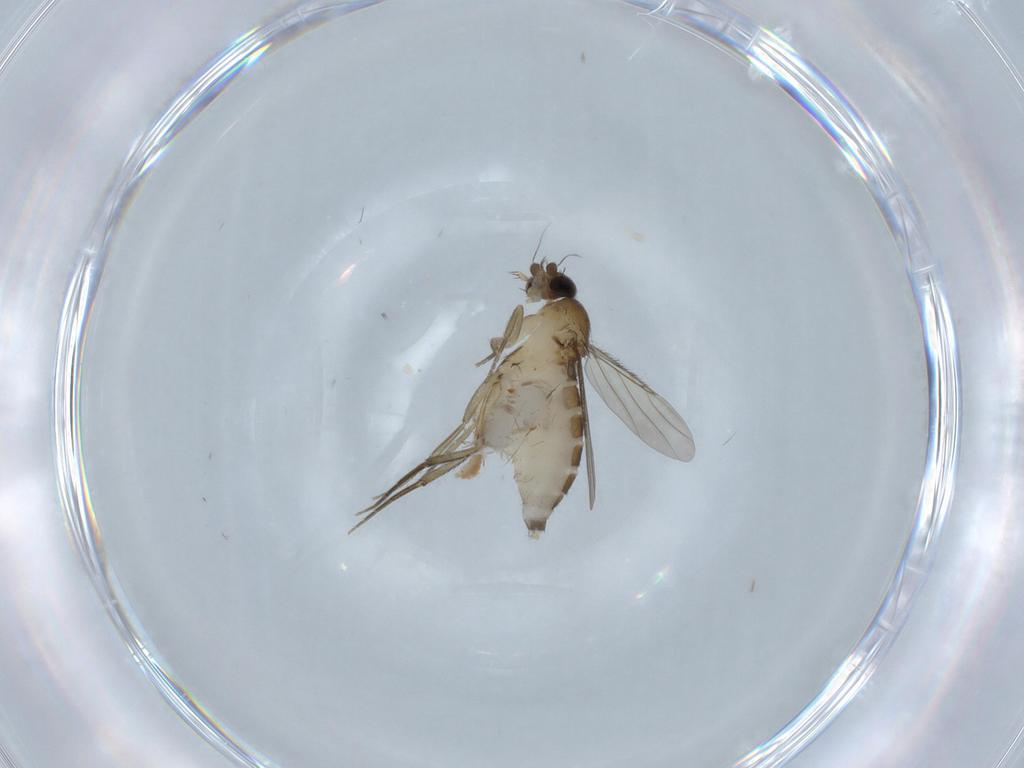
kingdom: Animalia
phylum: Arthropoda
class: Insecta
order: Diptera
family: Phoridae
